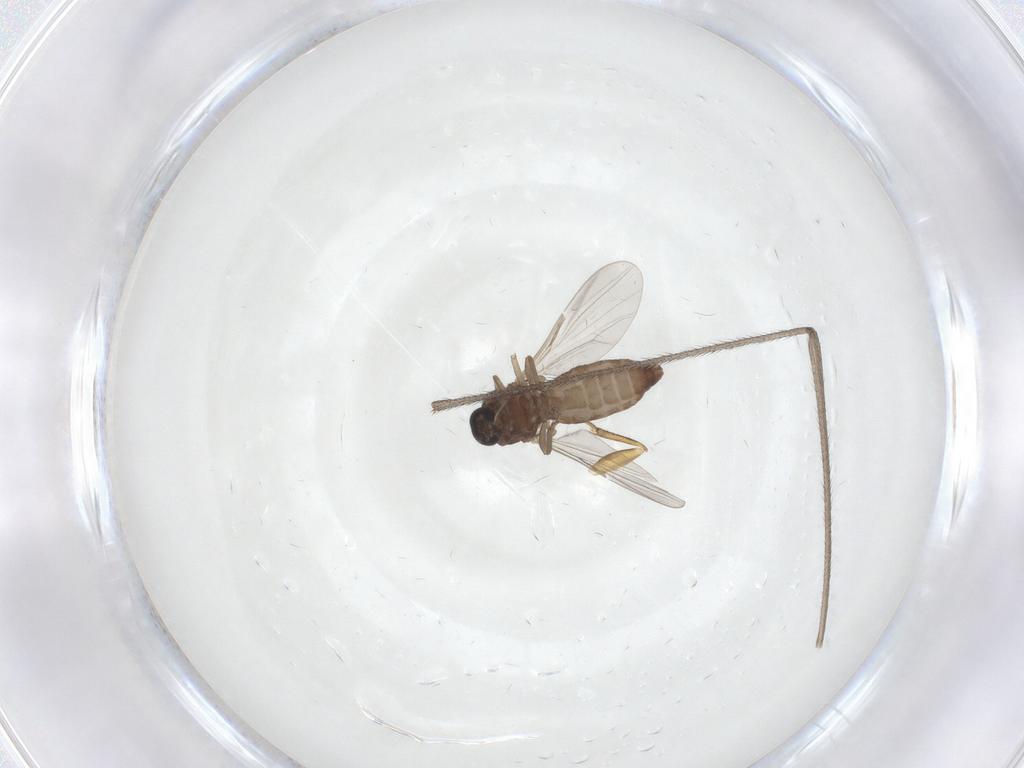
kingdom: Animalia
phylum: Arthropoda
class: Insecta
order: Diptera
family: Ceratopogonidae
